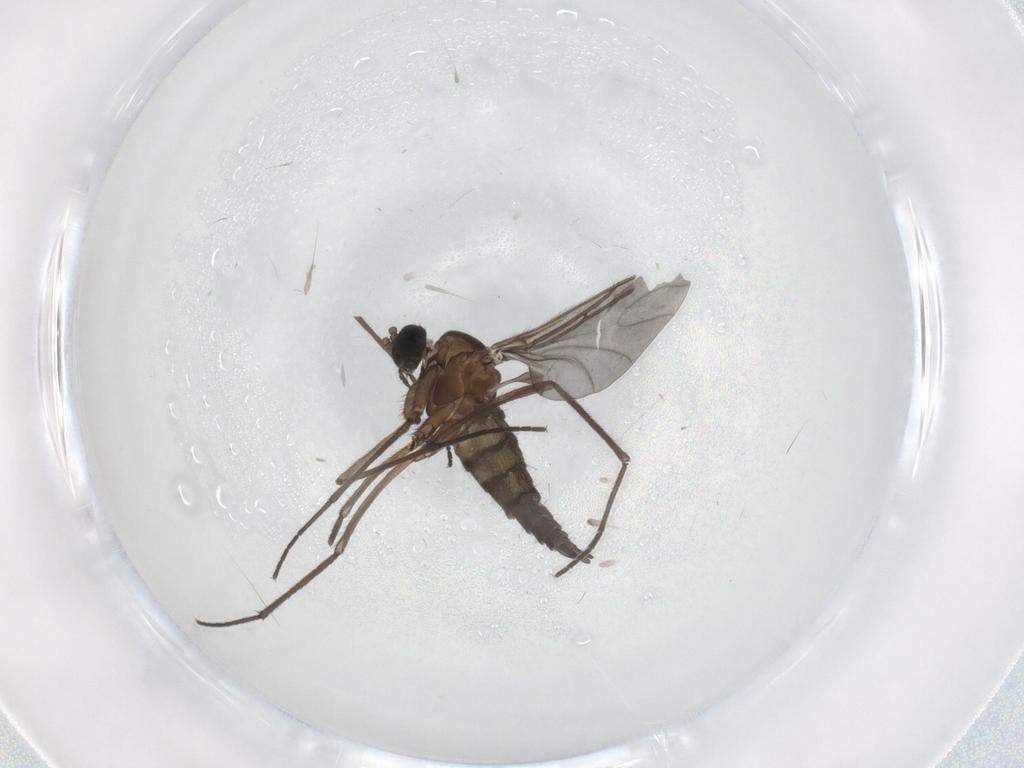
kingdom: Animalia
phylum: Arthropoda
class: Insecta
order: Diptera
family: Sciaridae
